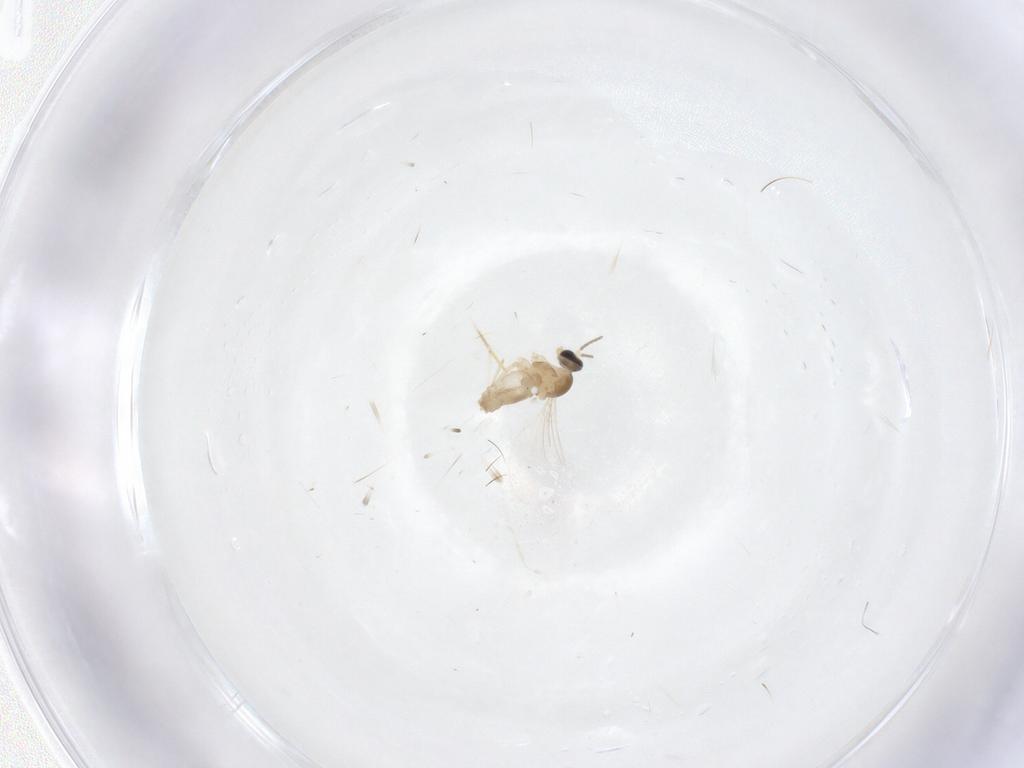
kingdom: Animalia
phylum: Arthropoda
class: Insecta
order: Diptera
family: Cecidomyiidae
